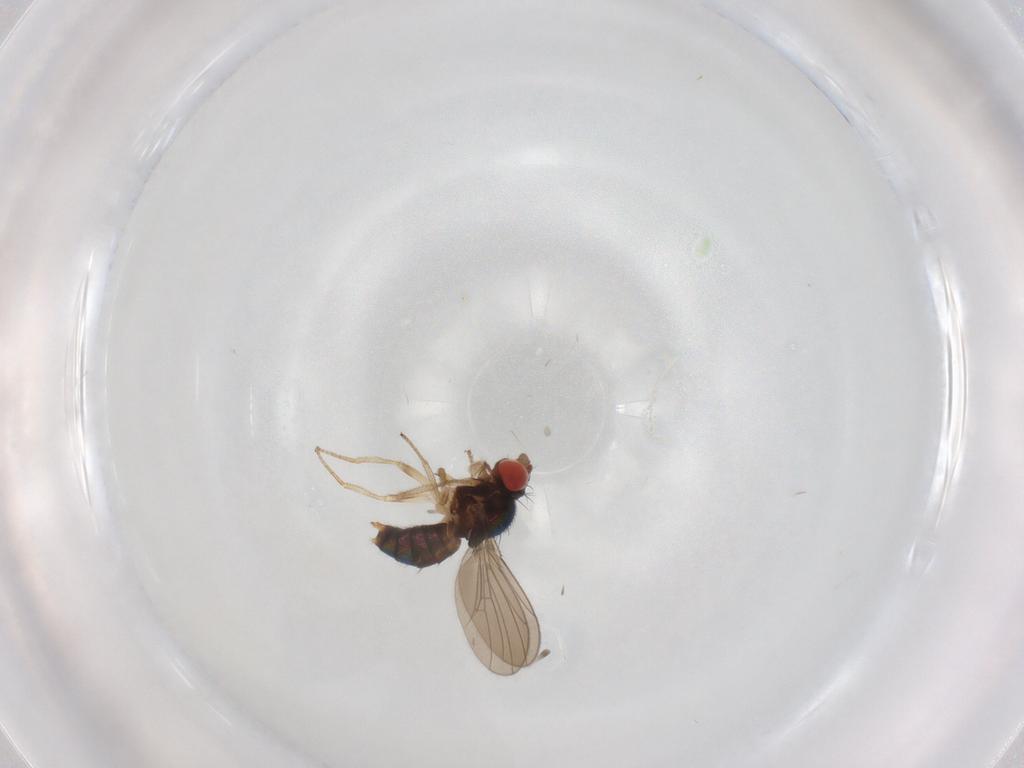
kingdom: Animalia
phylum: Arthropoda
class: Insecta
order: Diptera
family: Drosophilidae
